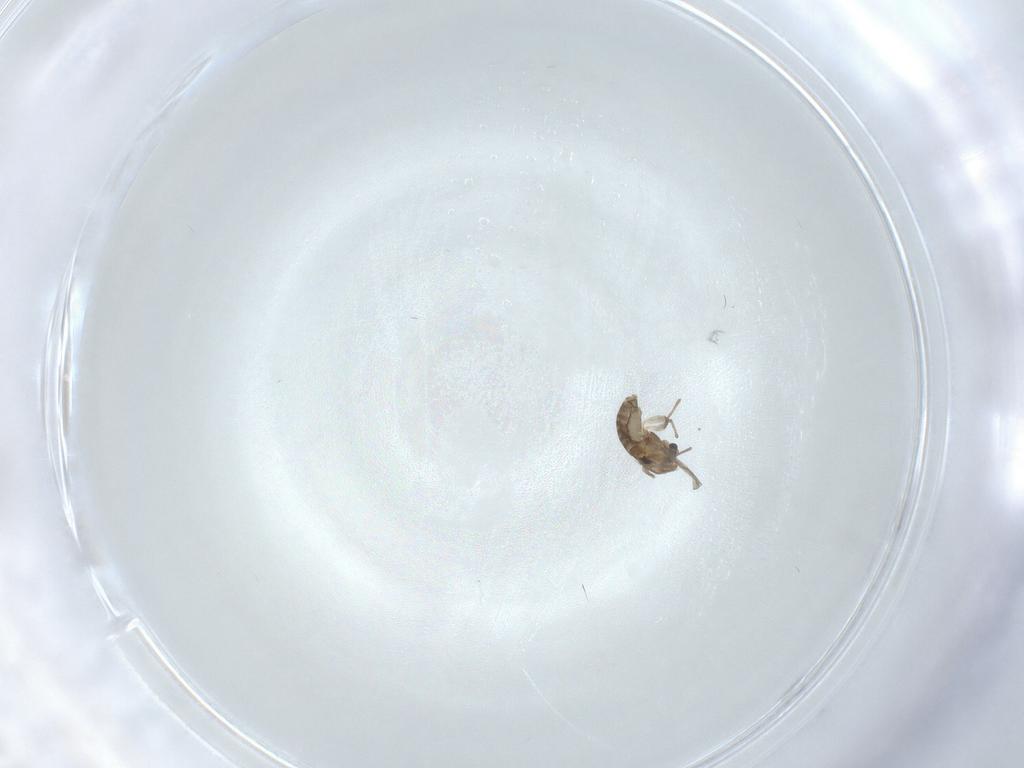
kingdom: Animalia
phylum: Arthropoda
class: Insecta
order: Diptera
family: Chironomidae
